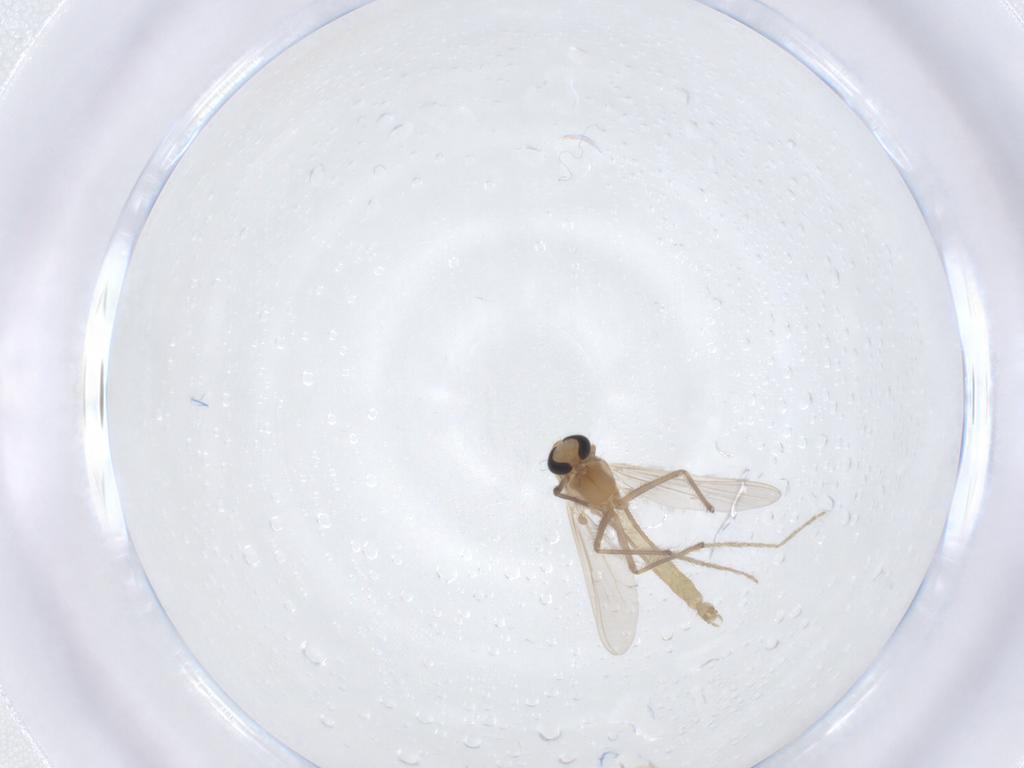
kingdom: Animalia
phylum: Arthropoda
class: Insecta
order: Diptera
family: Chironomidae
